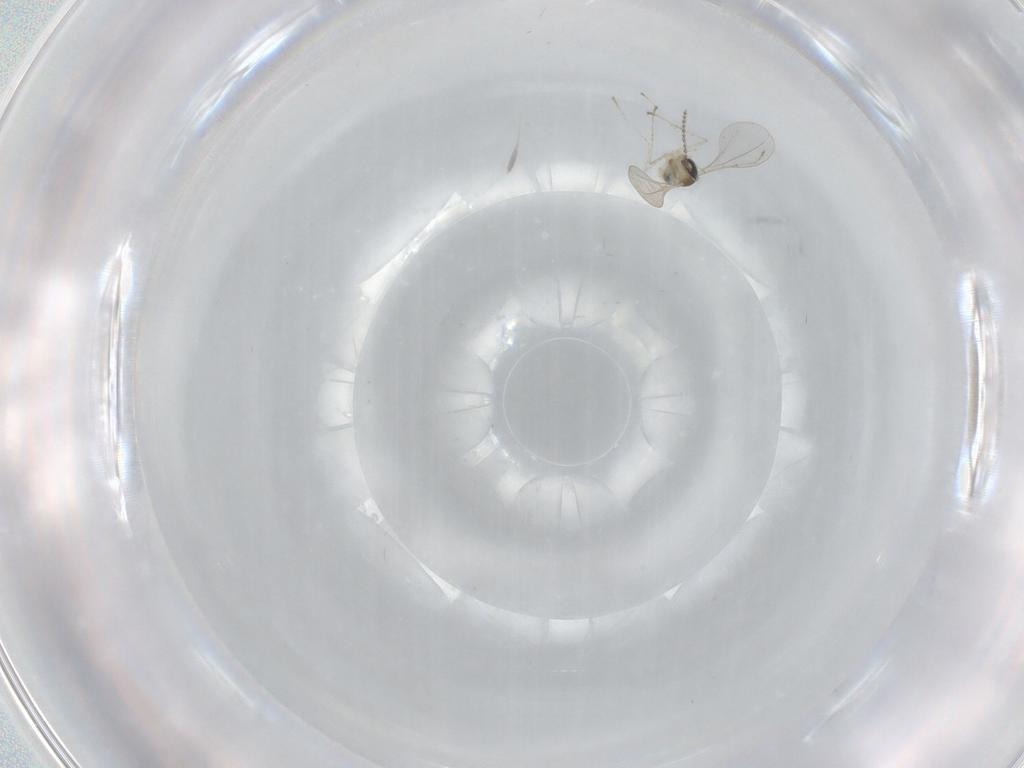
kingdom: Animalia
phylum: Arthropoda
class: Insecta
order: Diptera
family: Cecidomyiidae
